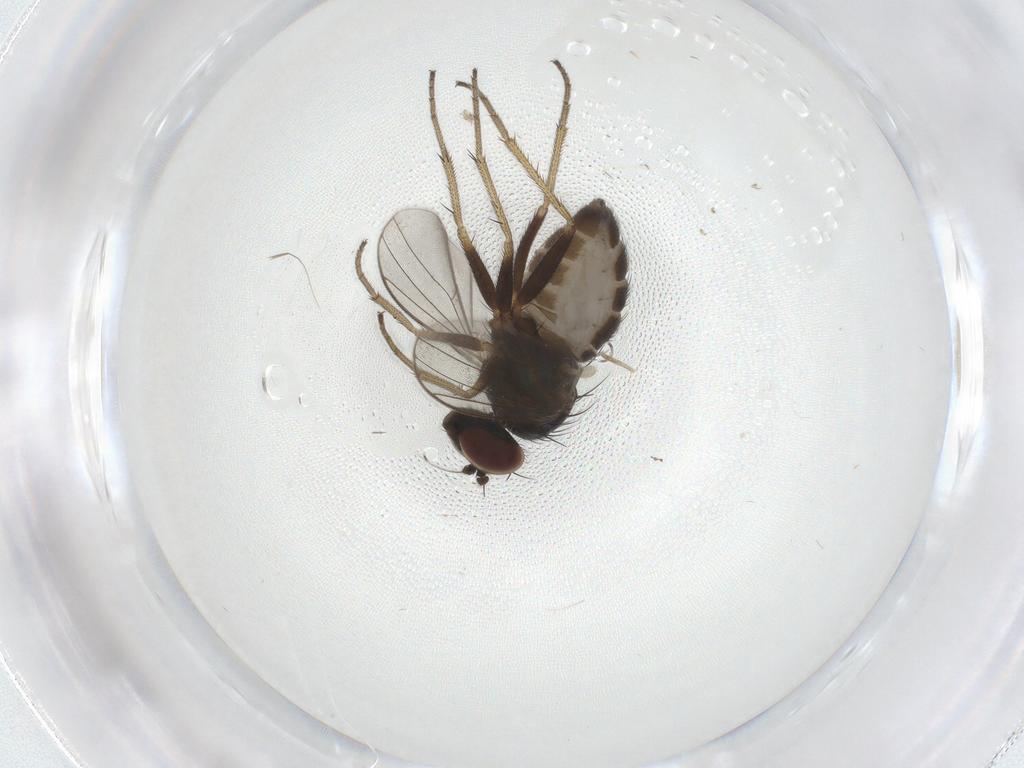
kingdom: Animalia
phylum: Arthropoda
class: Insecta
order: Diptera
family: Dolichopodidae
